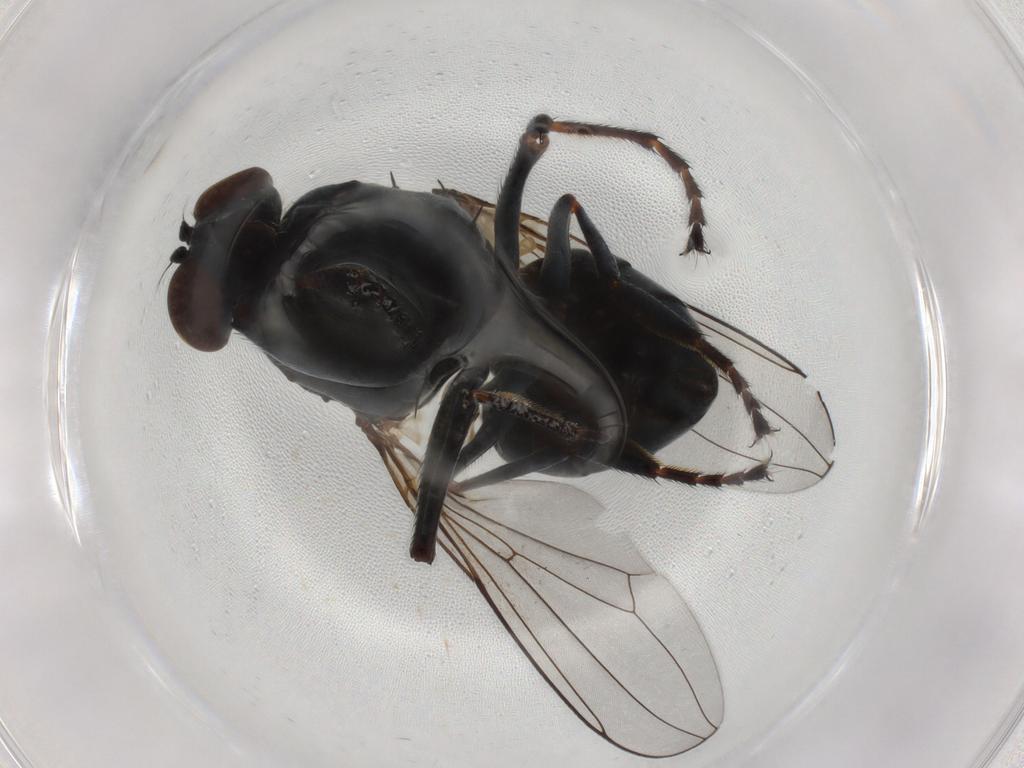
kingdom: Animalia
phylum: Arthropoda
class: Insecta
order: Diptera
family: Ephydridae
